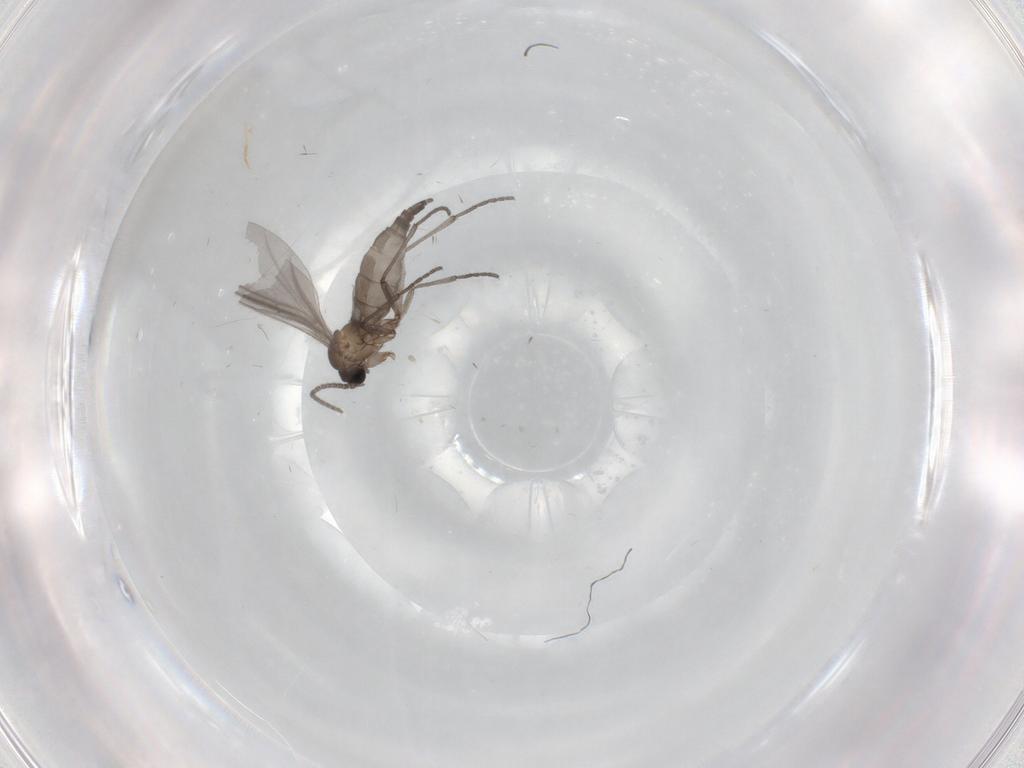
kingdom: Animalia
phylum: Arthropoda
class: Insecta
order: Diptera
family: Sciaridae
